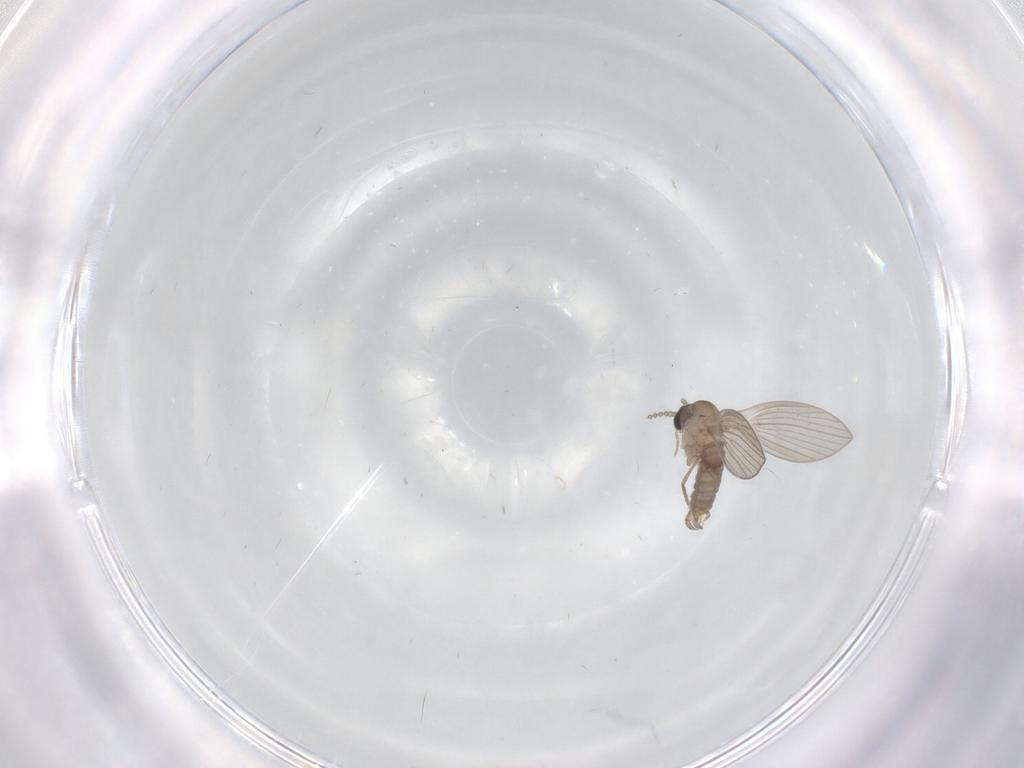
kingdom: Animalia
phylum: Arthropoda
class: Insecta
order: Diptera
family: Psychodidae
